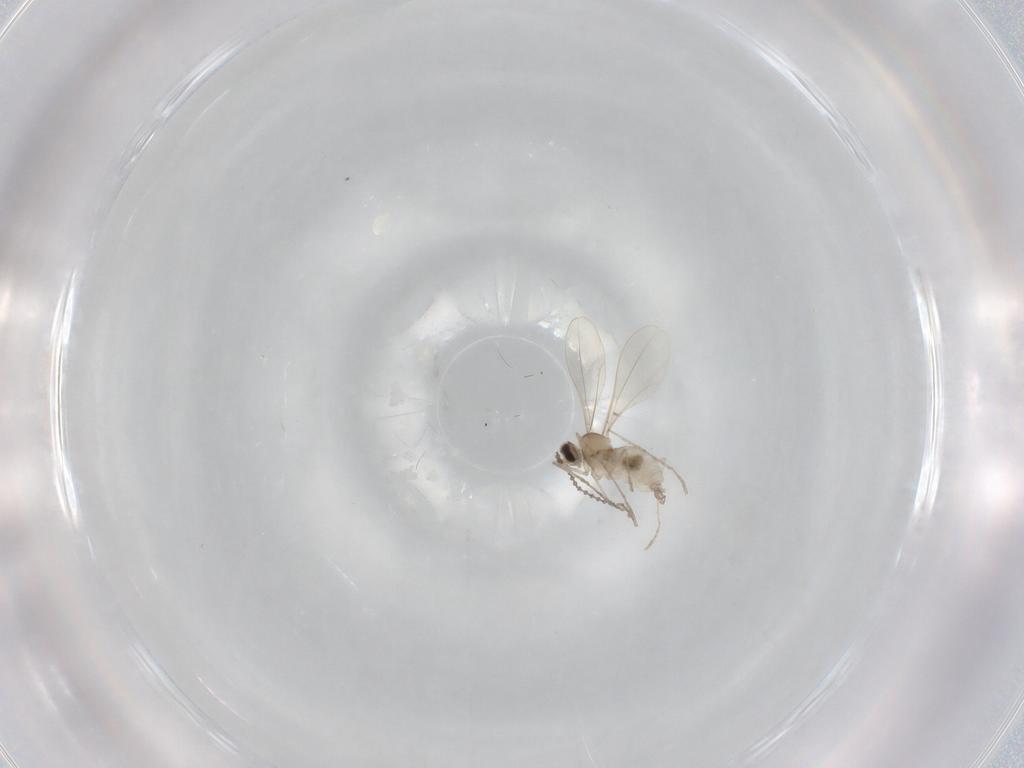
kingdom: Animalia
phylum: Arthropoda
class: Insecta
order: Diptera
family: Cecidomyiidae
